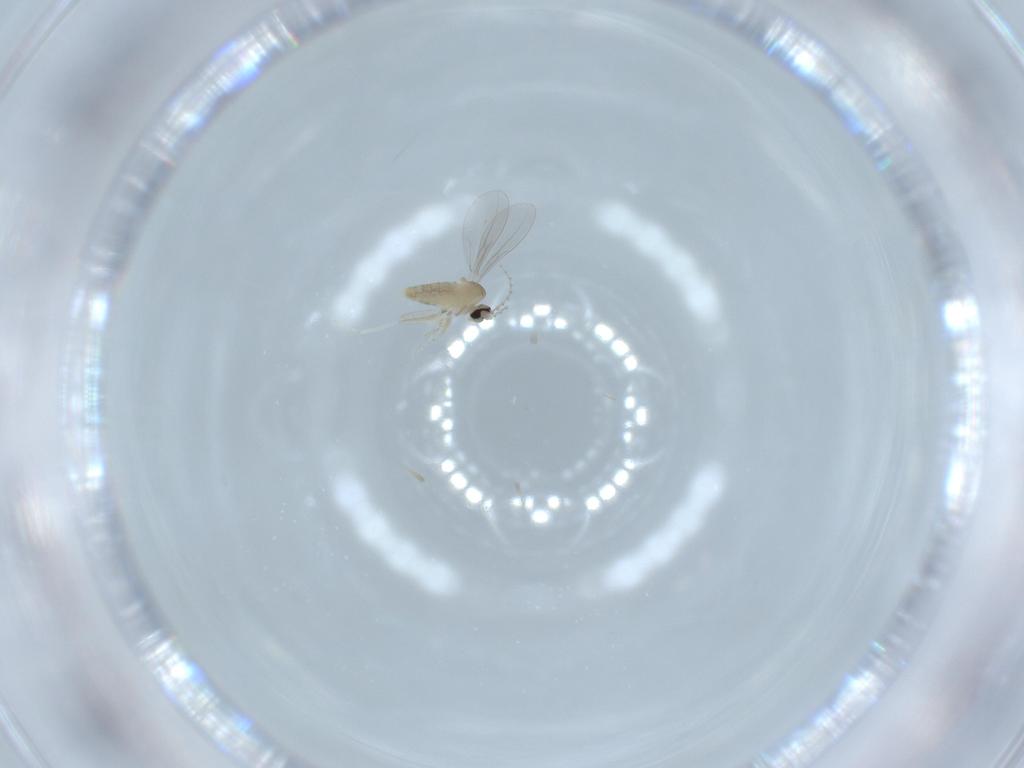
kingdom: Animalia
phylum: Arthropoda
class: Insecta
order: Diptera
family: Cecidomyiidae
